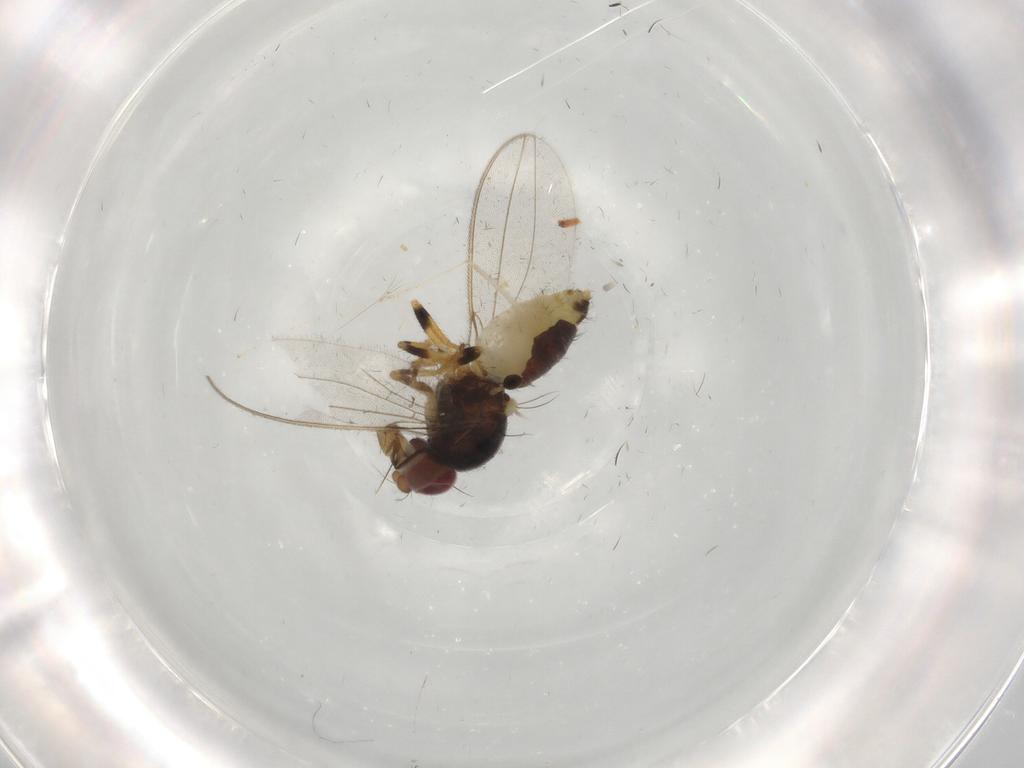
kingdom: Animalia
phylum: Arthropoda
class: Insecta
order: Diptera
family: Asteiidae
